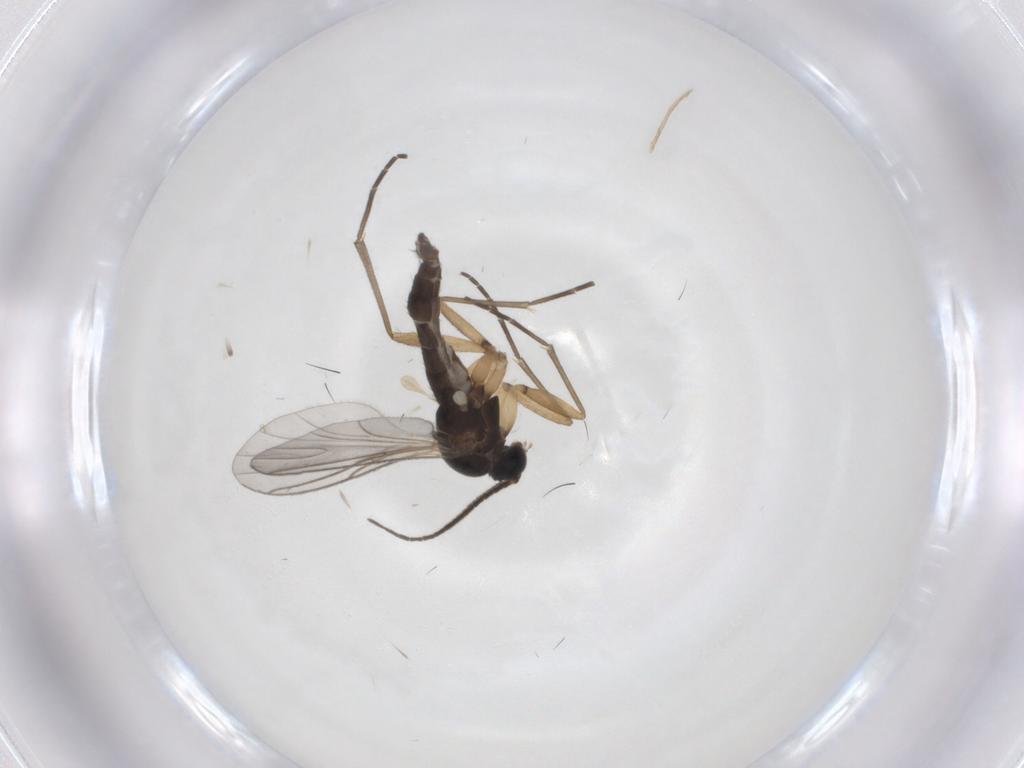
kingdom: Animalia
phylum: Arthropoda
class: Insecta
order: Diptera
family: Sciaridae
